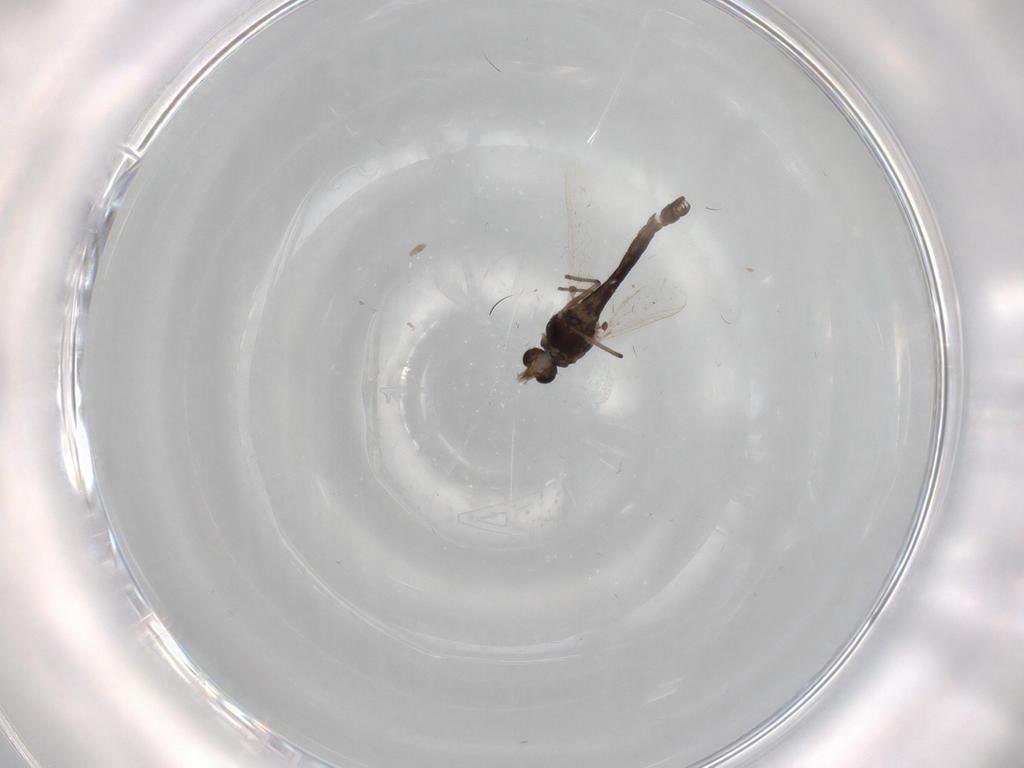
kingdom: Animalia
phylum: Arthropoda
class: Insecta
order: Diptera
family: Chironomidae
